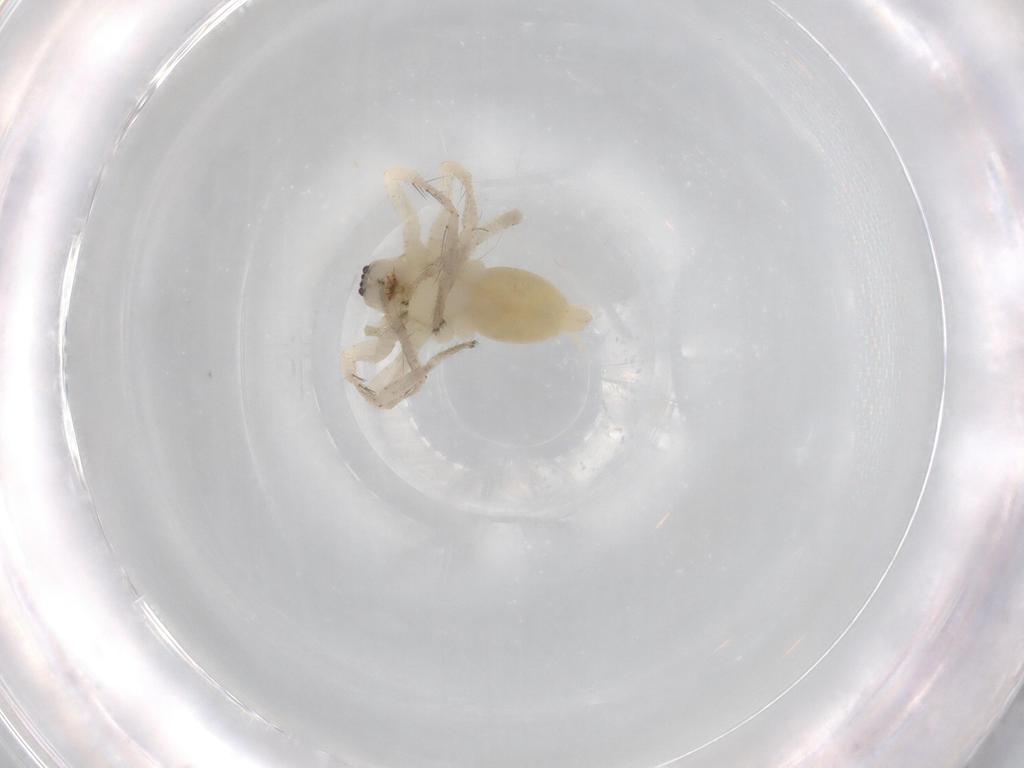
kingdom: Animalia
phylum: Arthropoda
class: Arachnida
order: Araneae
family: Anyphaenidae
